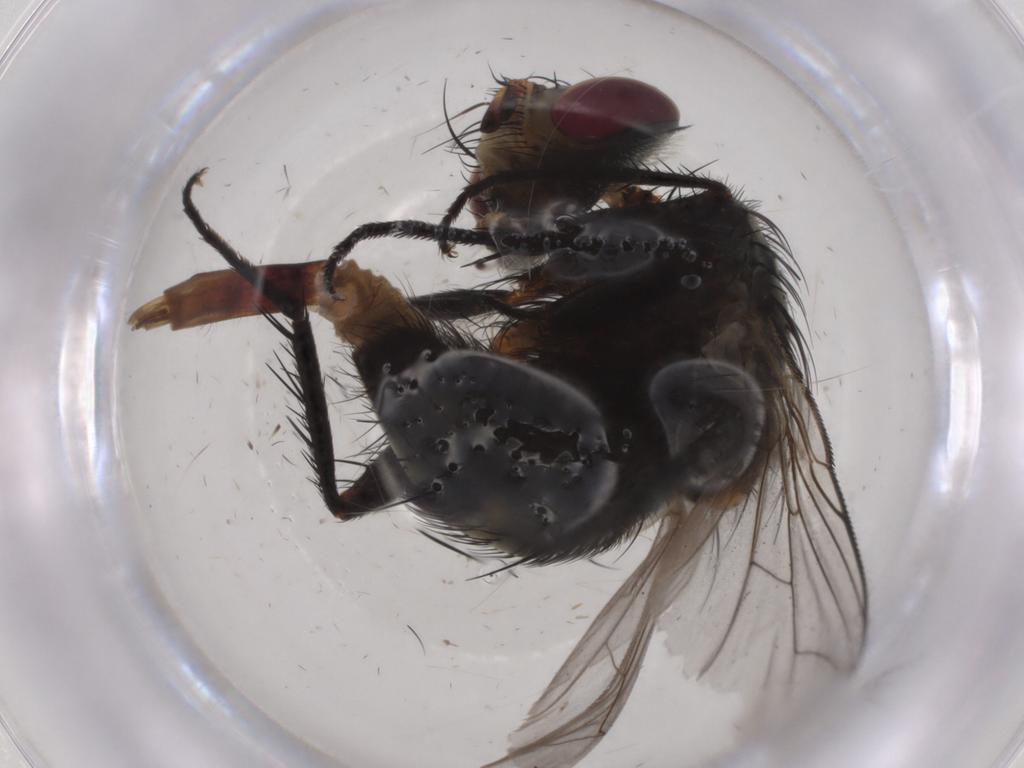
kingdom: Animalia
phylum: Arthropoda
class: Insecta
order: Diptera
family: Tachinidae
